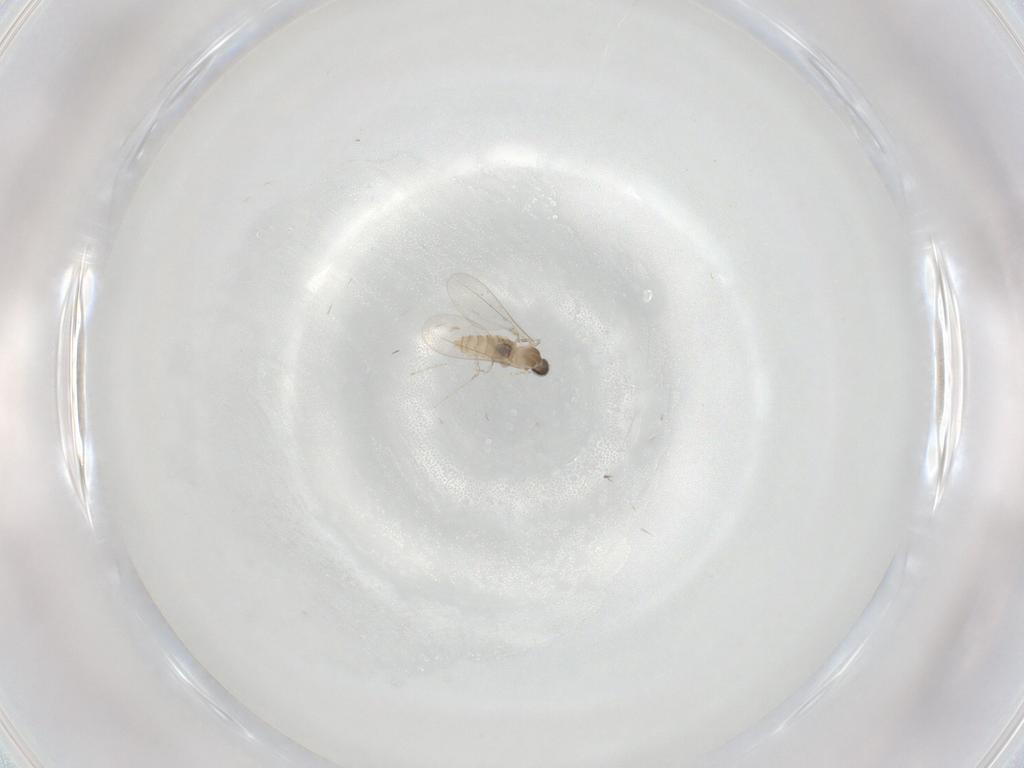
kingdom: Animalia
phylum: Arthropoda
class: Insecta
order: Diptera
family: Cecidomyiidae
